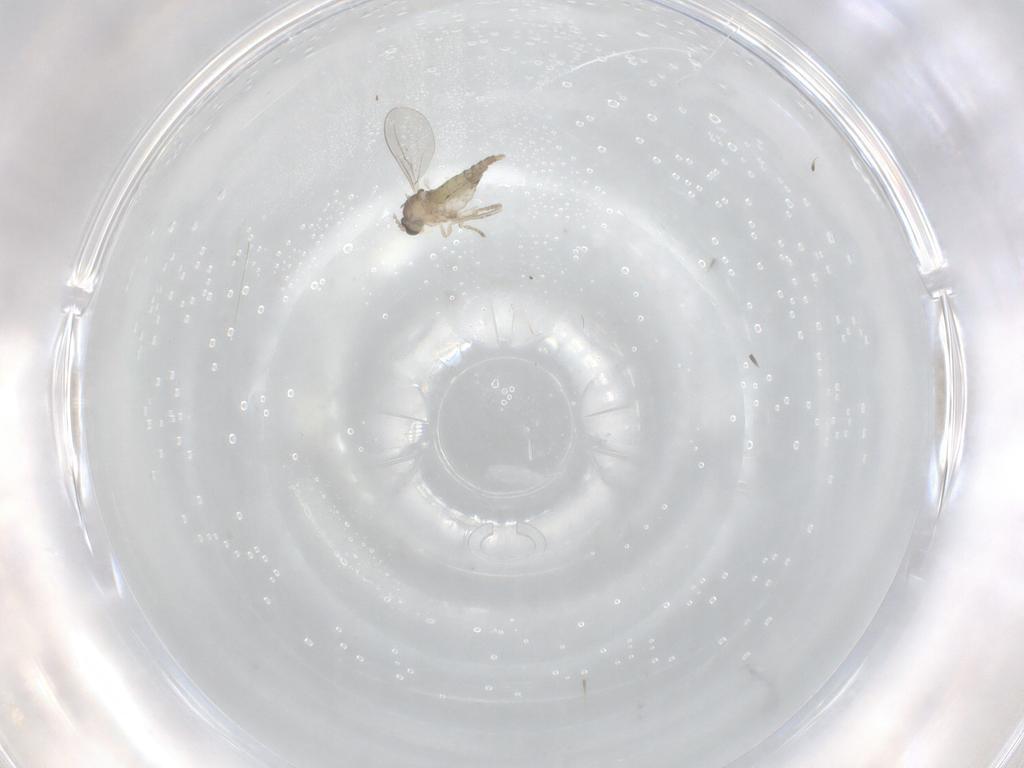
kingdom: Animalia
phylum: Arthropoda
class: Insecta
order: Diptera
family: Cecidomyiidae
